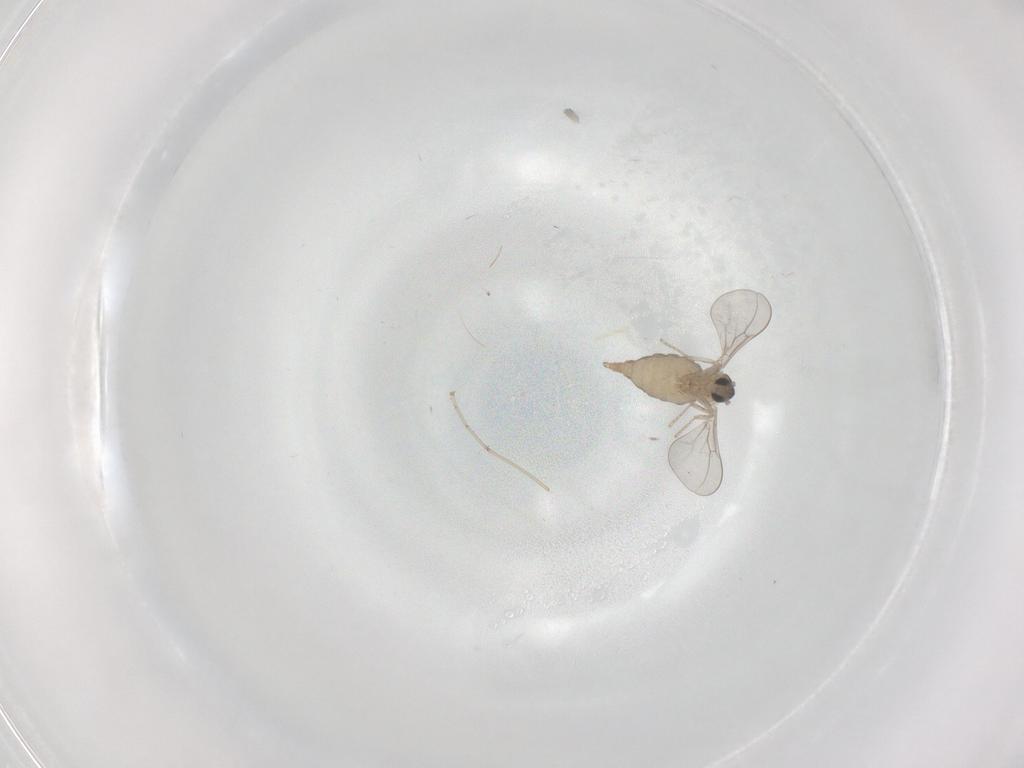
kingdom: Animalia
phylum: Arthropoda
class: Insecta
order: Diptera
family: Cecidomyiidae
